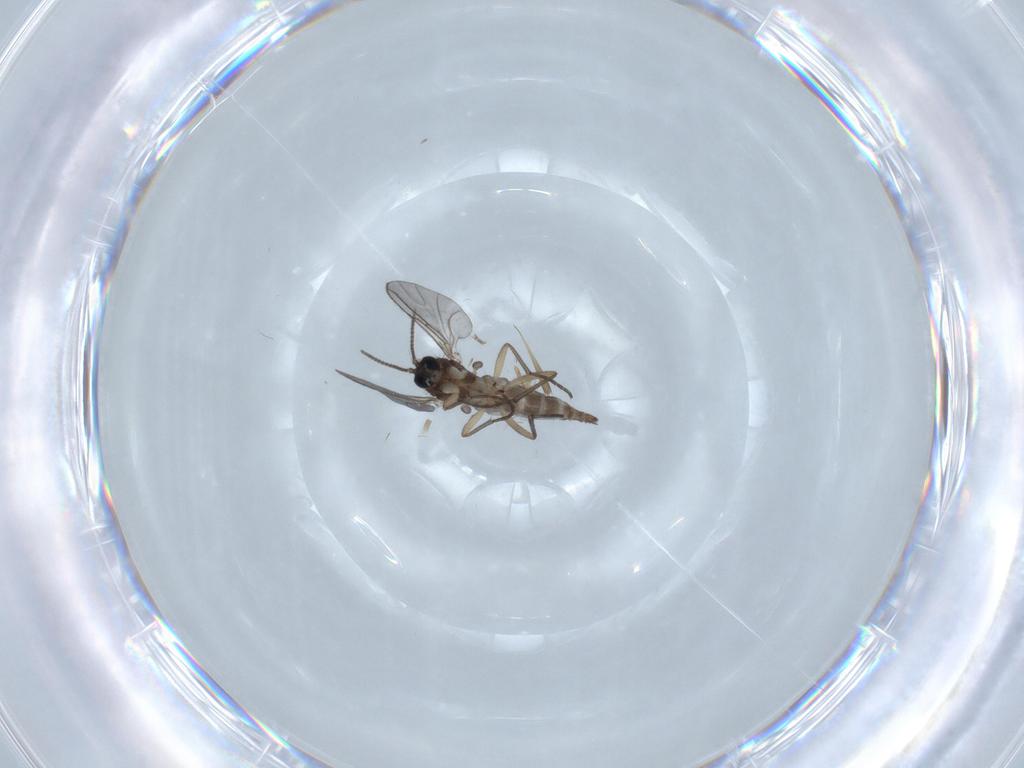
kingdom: Animalia
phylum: Arthropoda
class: Insecta
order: Diptera
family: Sciaridae
